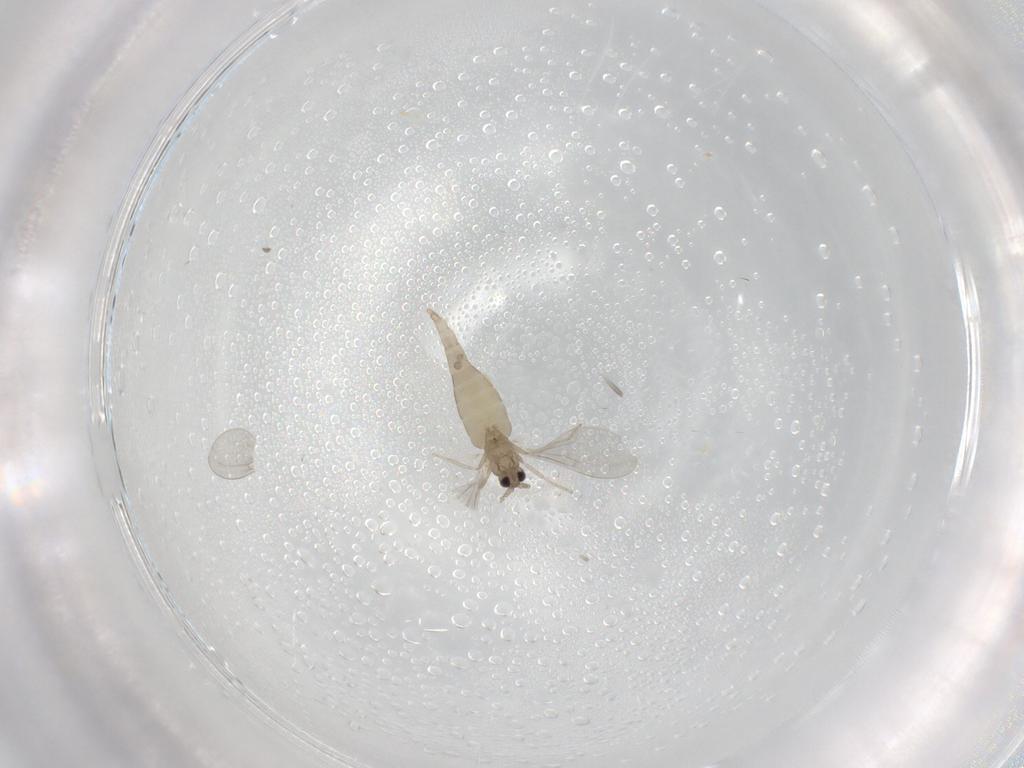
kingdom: Animalia
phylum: Arthropoda
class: Insecta
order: Diptera
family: Cecidomyiidae
